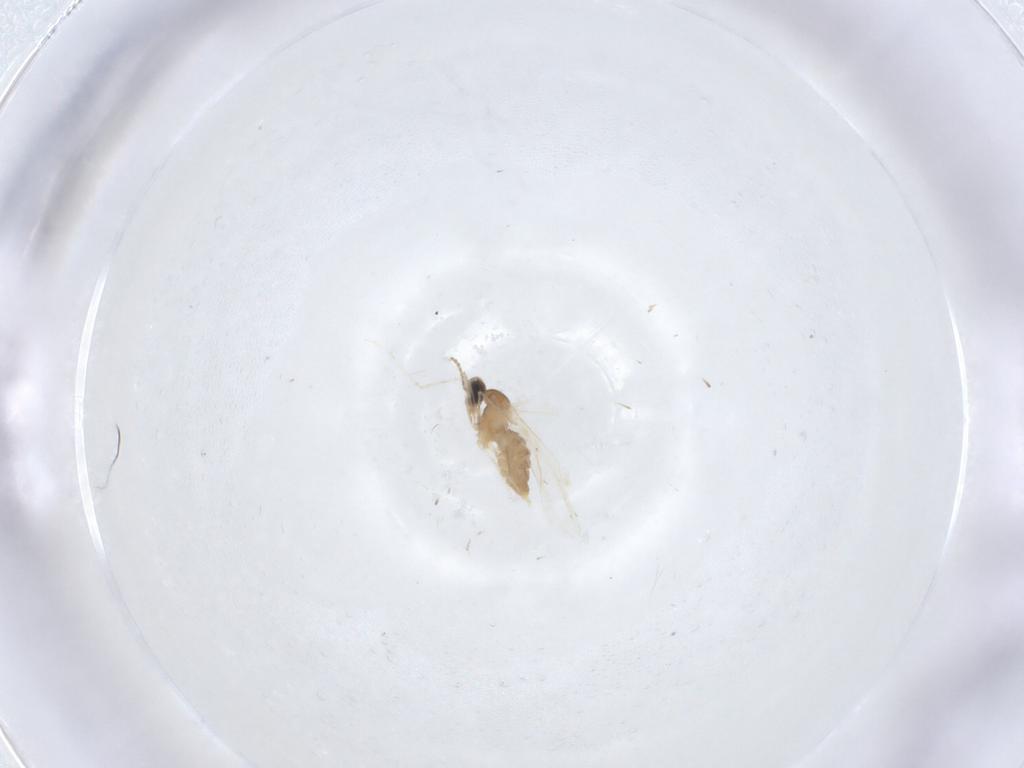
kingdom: Animalia
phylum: Arthropoda
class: Insecta
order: Diptera
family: Cecidomyiidae
